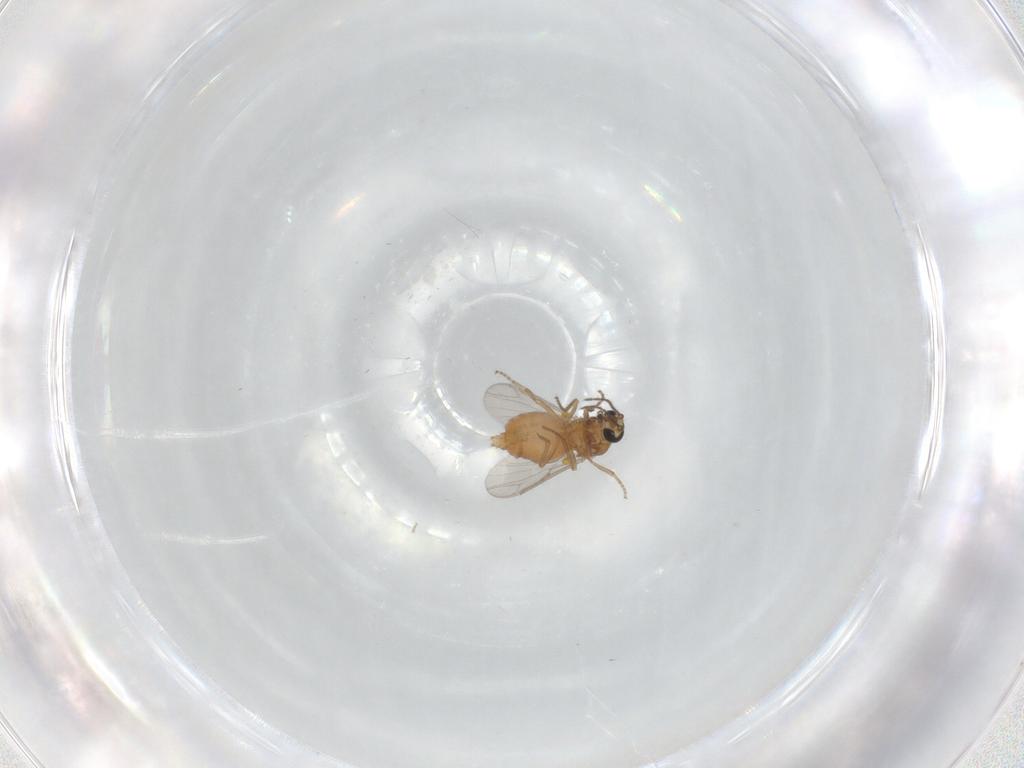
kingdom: Animalia
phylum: Arthropoda
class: Insecta
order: Diptera
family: Ceratopogonidae
